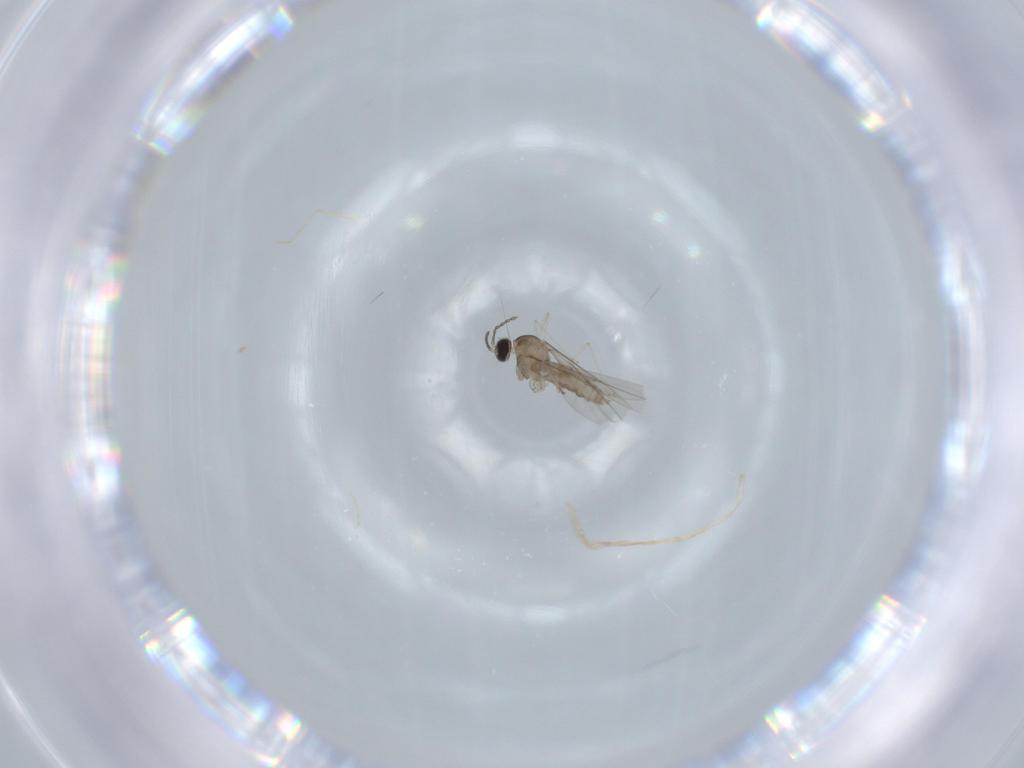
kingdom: Animalia
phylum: Arthropoda
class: Insecta
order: Diptera
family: Cecidomyiidae
